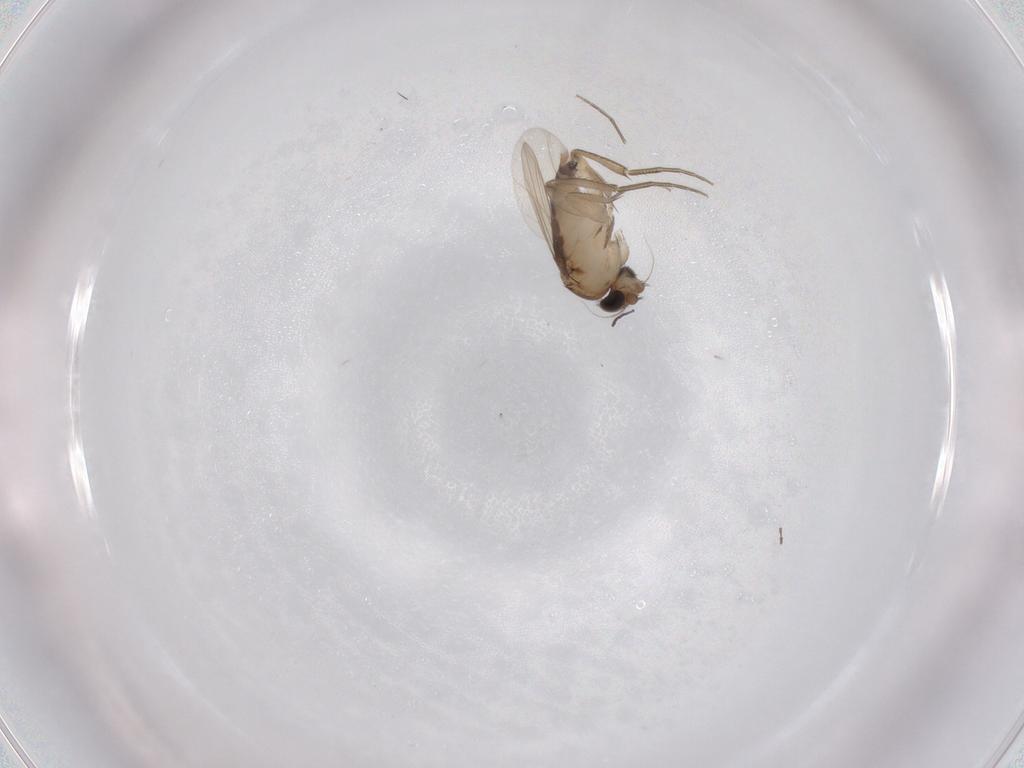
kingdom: Animalia
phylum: Arthropoda
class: Insecta
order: Diptera
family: Phoridae
